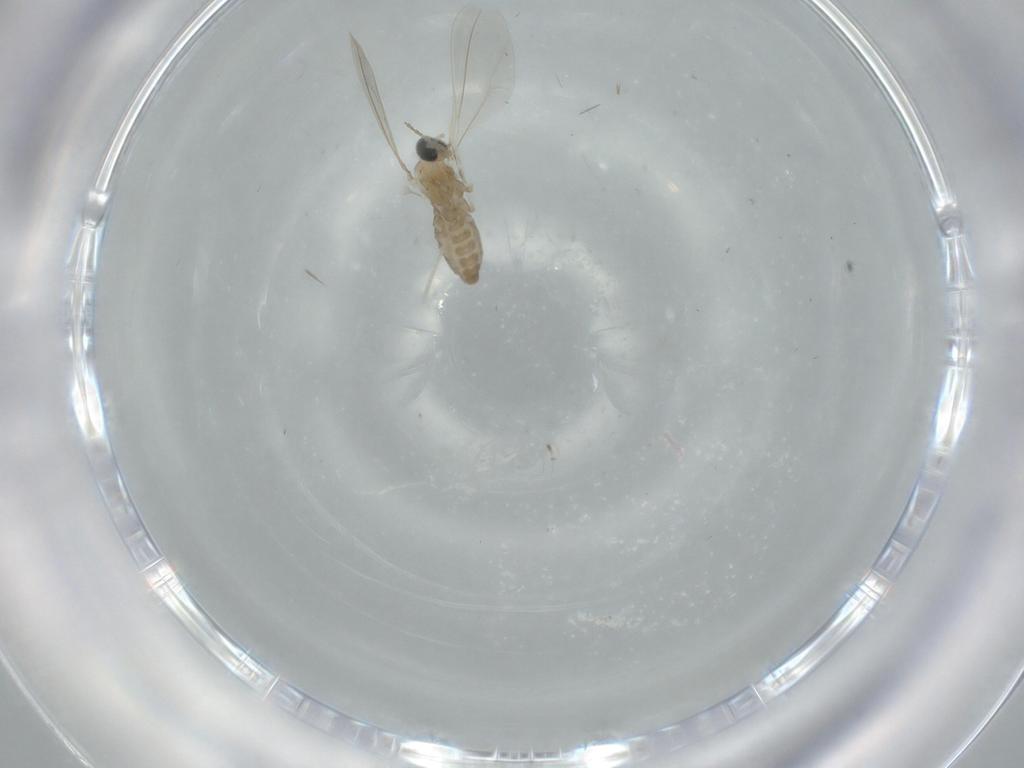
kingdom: Animalia
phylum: Arthropoda
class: Insecta
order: Diptera
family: Cecidomyiidae
